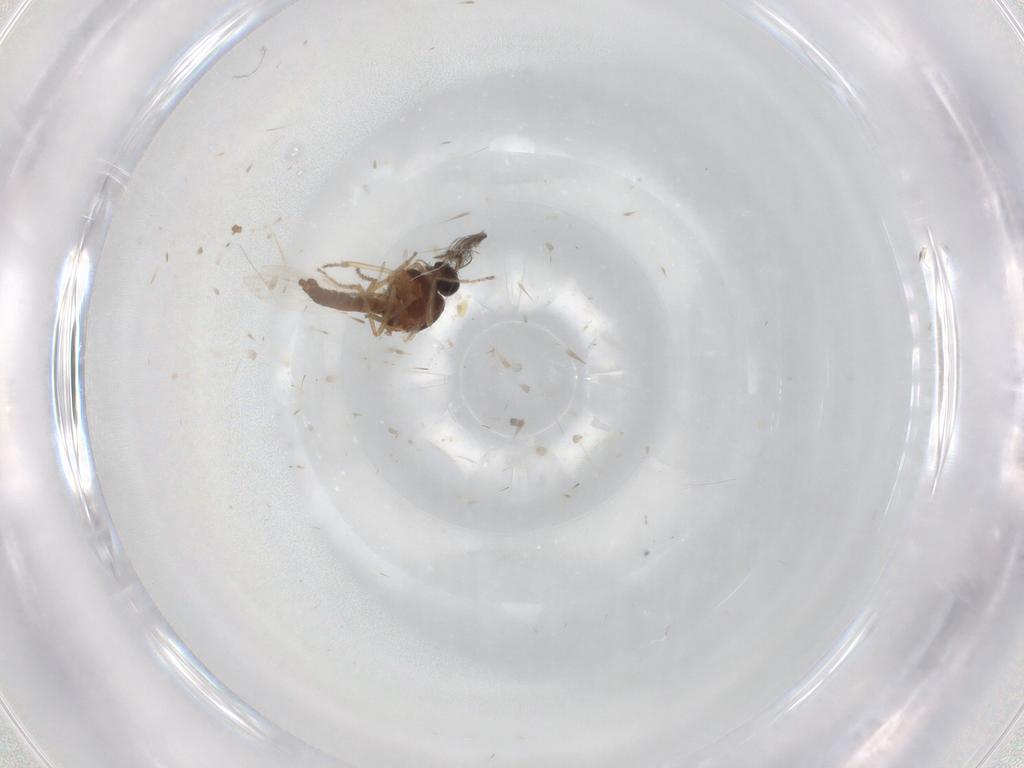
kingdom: Animalia
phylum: Arthropoda
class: Insecta
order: Diptera
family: Ceratopogonidae
